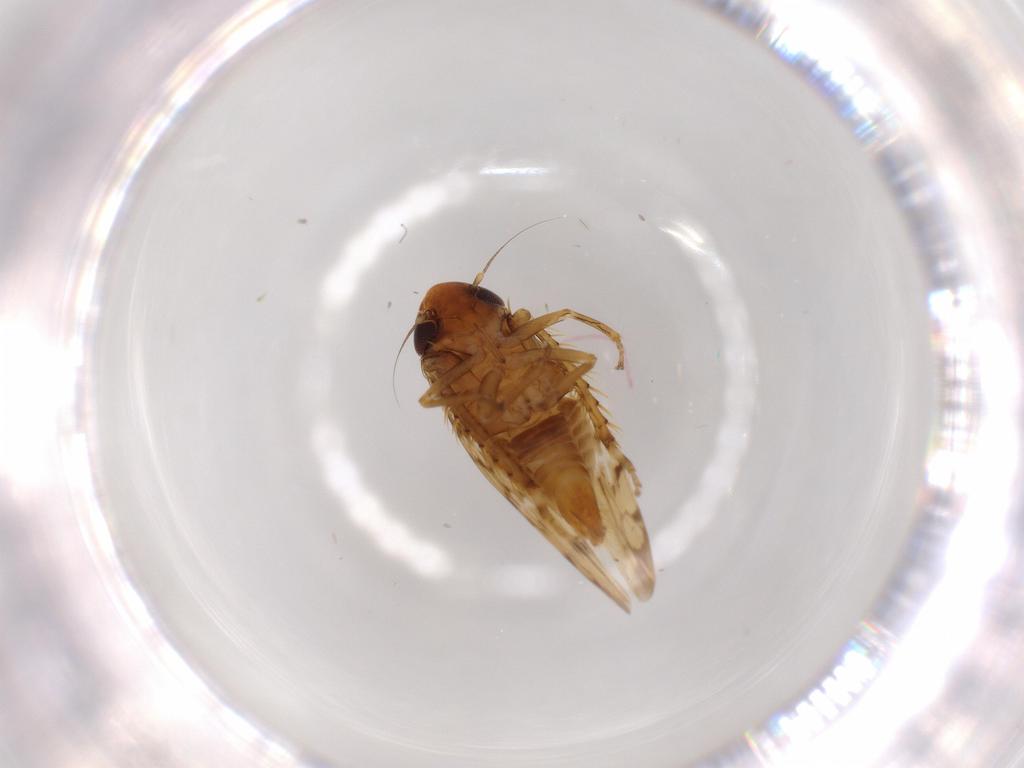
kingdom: Animalia
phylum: Arthropoda
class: Insecta
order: Hemiptera
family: Cicadellidae
